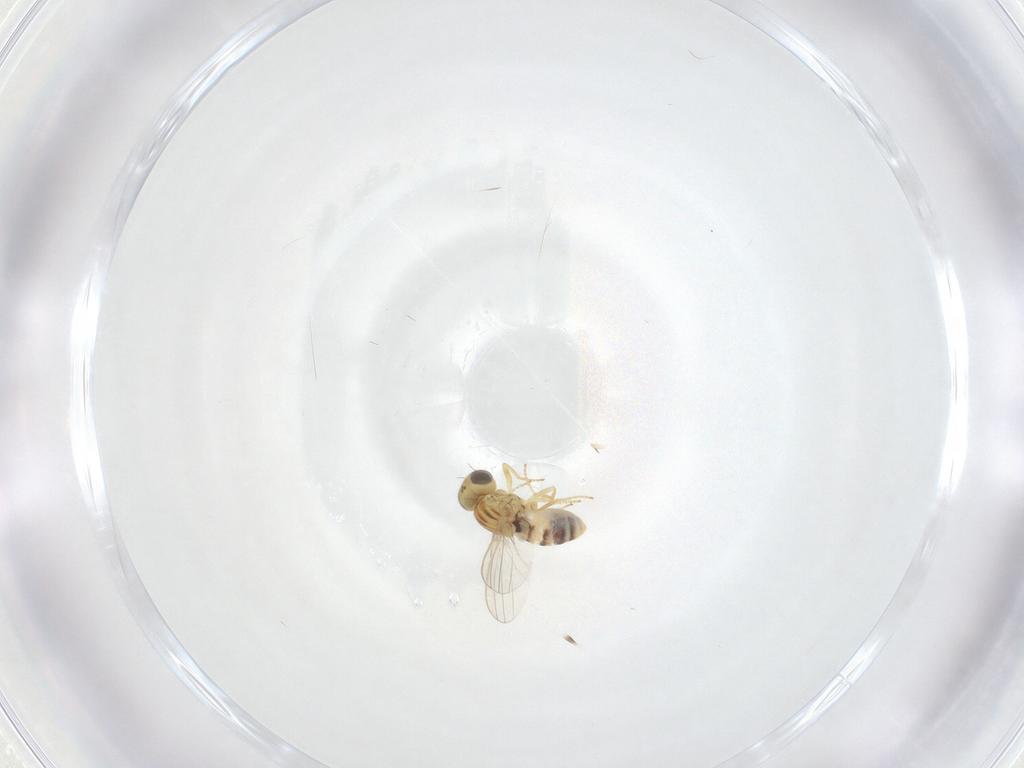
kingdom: Animalia
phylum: Arthropoda
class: Insecta
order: Diptera
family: Chyromyidae
